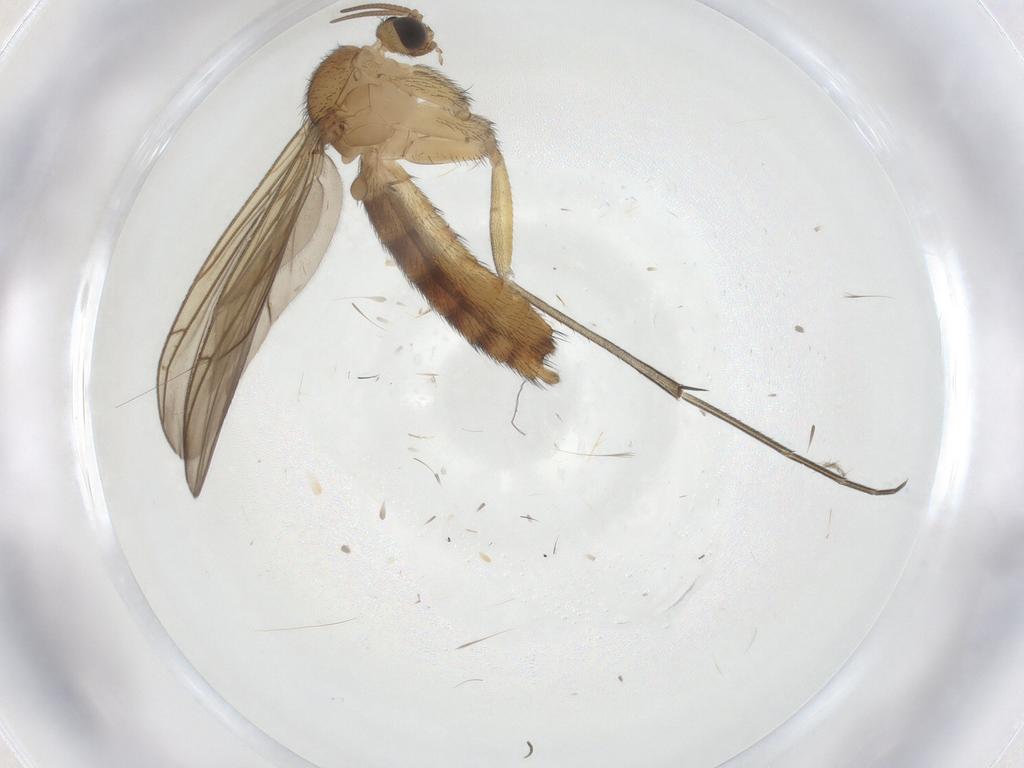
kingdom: Animalia
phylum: Arthropoda
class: Insecta
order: Diptera
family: Keroplatidae
